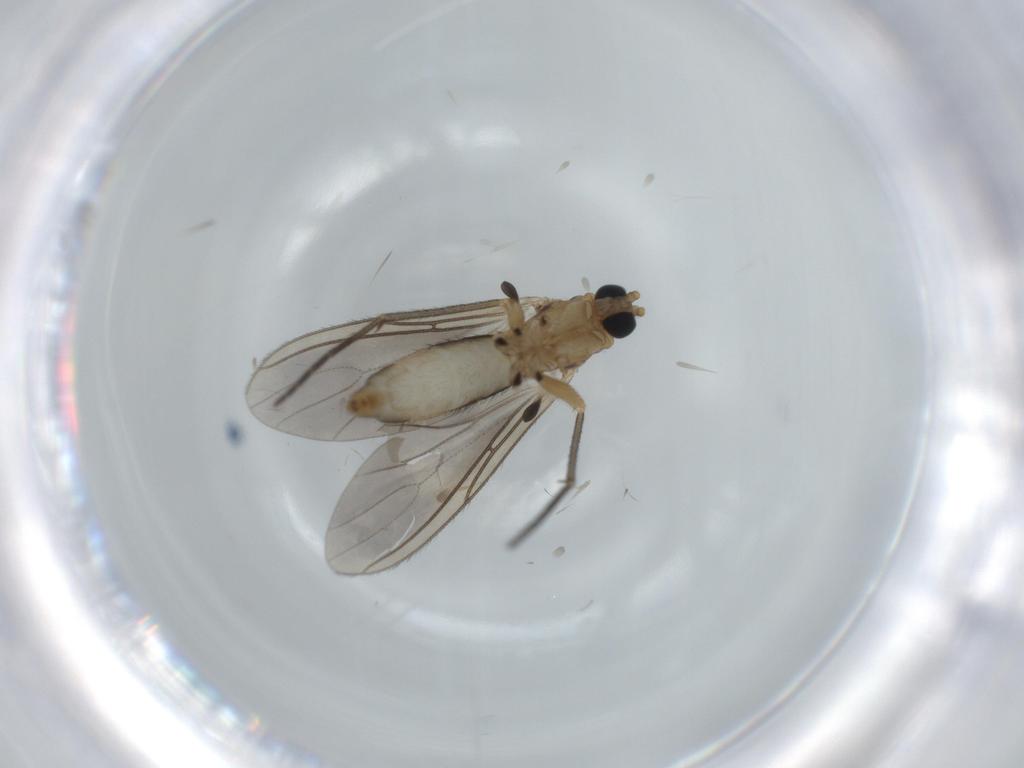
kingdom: Animalia
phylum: Arthropoda
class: Insecta
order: Diptera
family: Sciaridae
